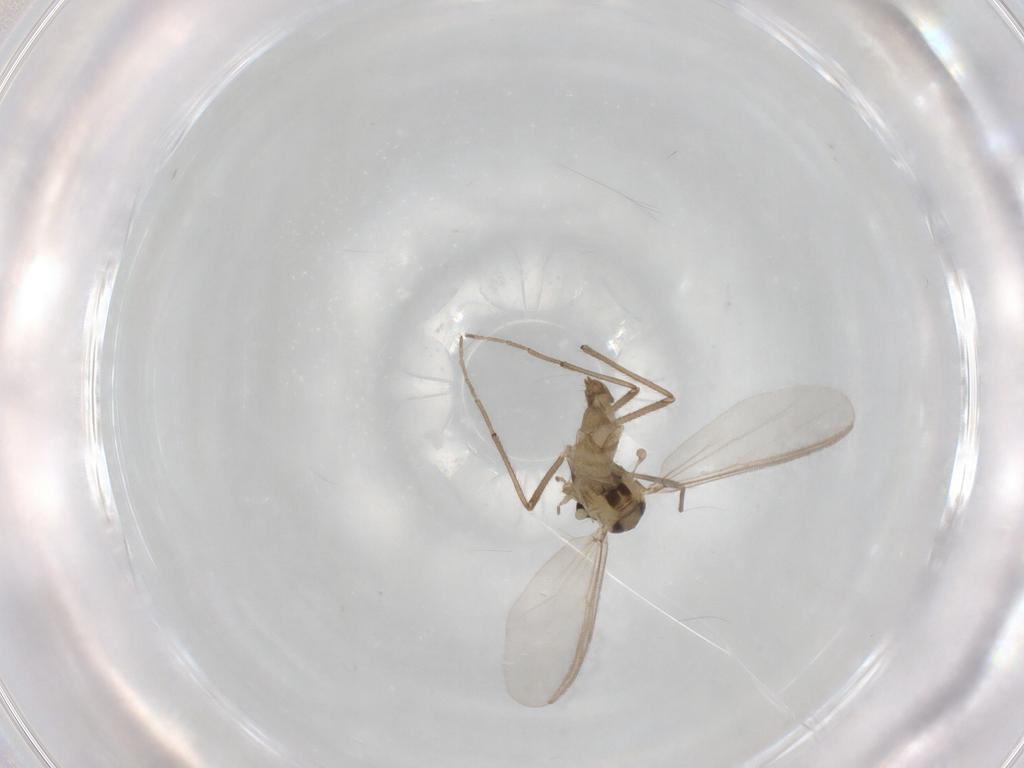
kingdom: Animalia
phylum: Arthropoda
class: Insecta
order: Diptera
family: Chironomidae
